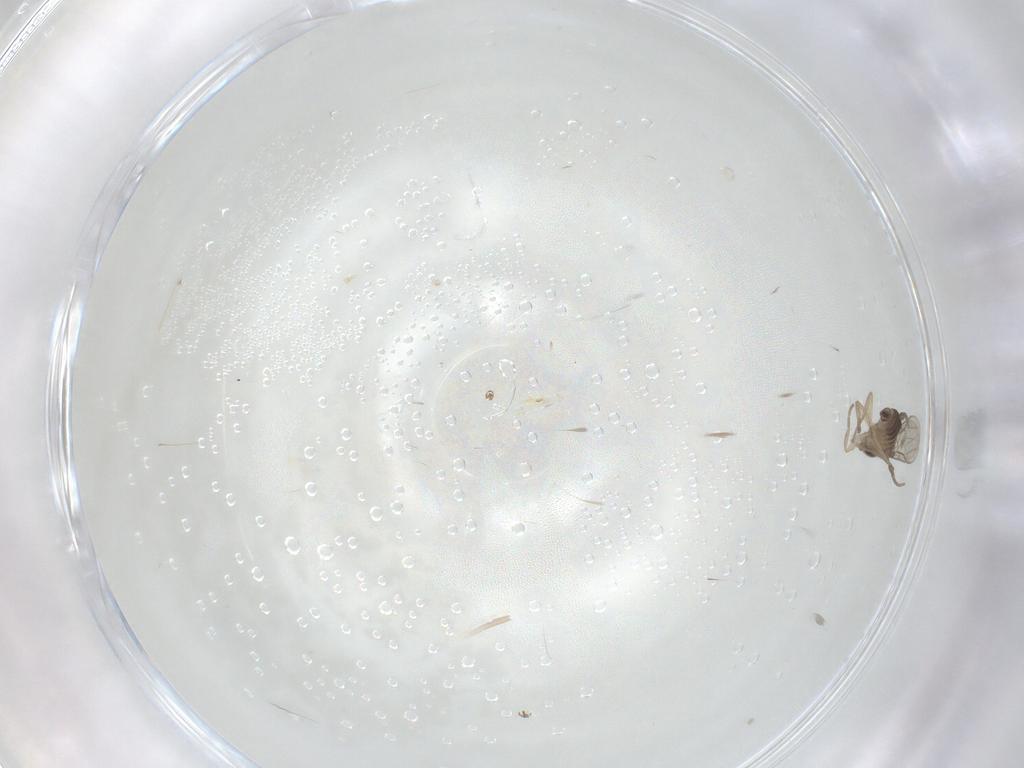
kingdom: Animalia
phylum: Arthropoda
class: Insecta
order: Diptera
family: Phoridae
